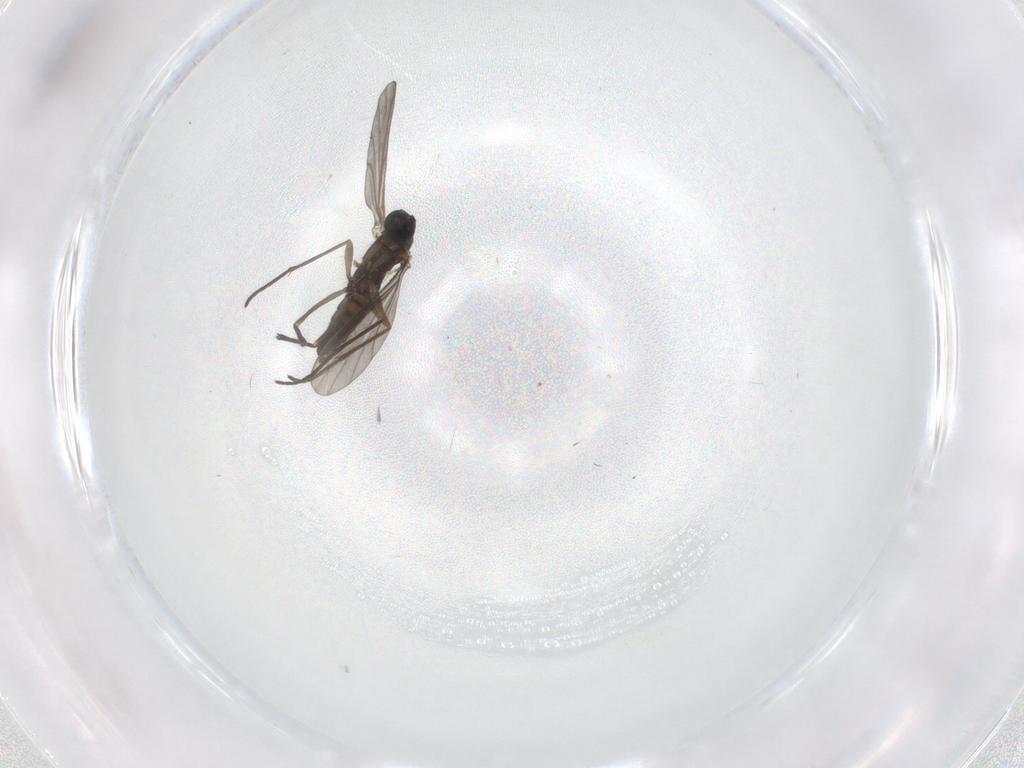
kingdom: Animalia
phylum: Arthropoda
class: Insecta
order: Diptera
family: Sciaridae
